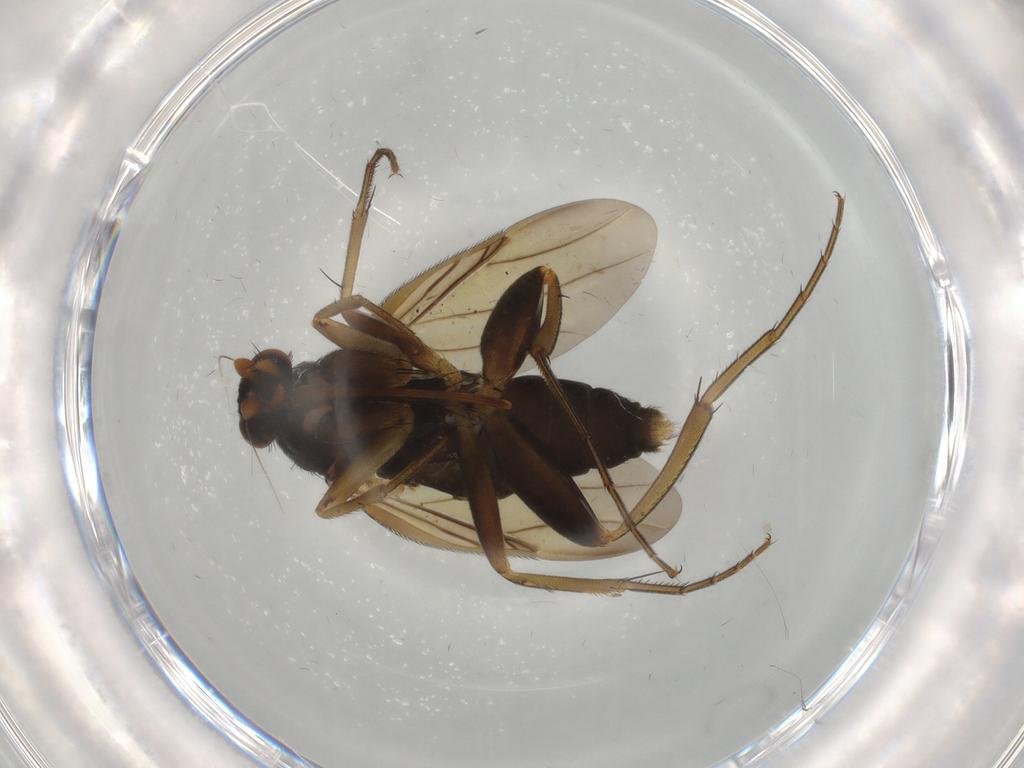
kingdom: Animalia
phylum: Arthropoda
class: Insecta
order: Diptera
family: Phoridae
